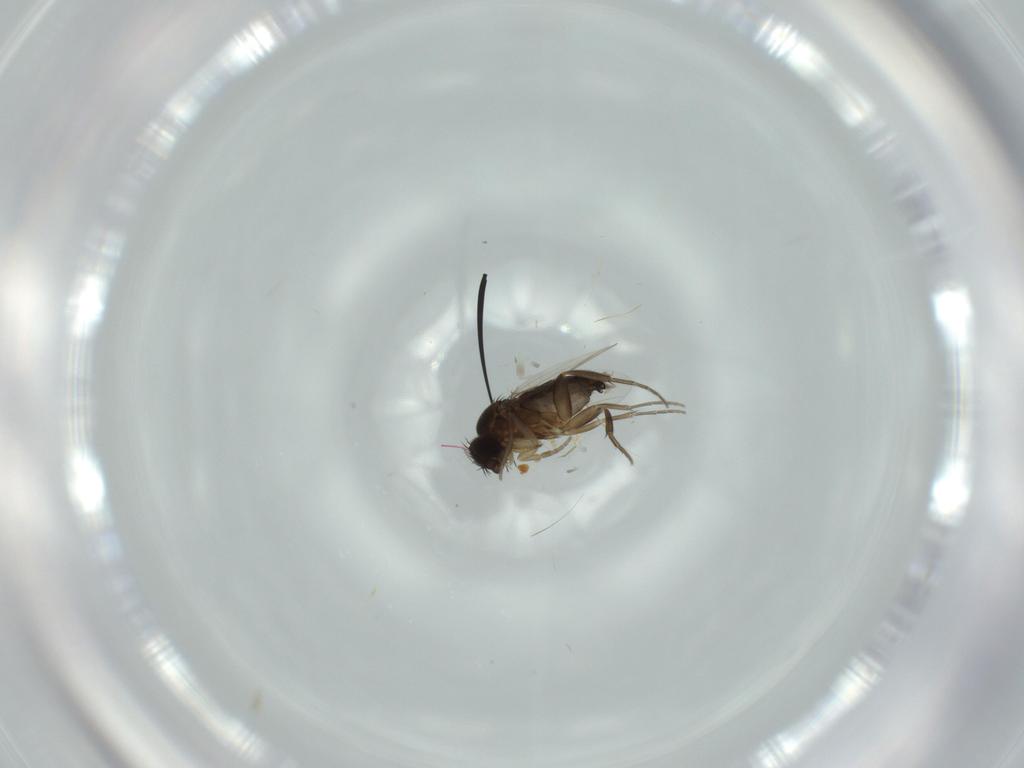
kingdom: Animalia
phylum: Arthropoda
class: Insecta
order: Diptera
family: Phoridae
